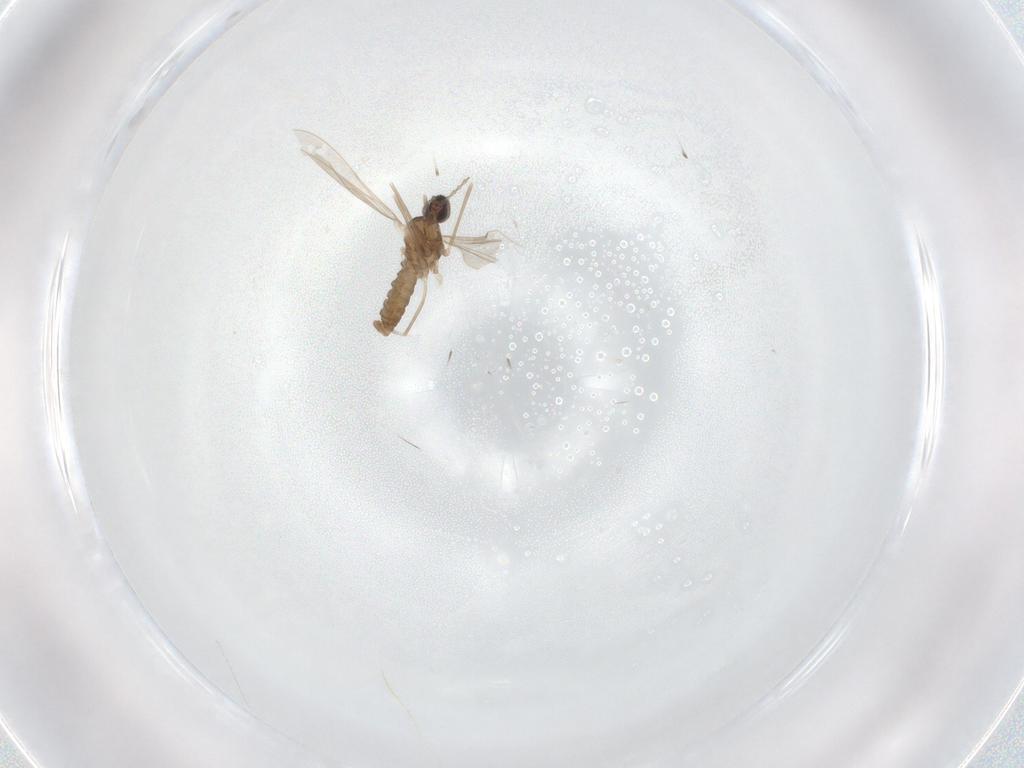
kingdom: Animalia
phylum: Arthropoda
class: Insecta
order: Diptera
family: Cecidomyiidae
